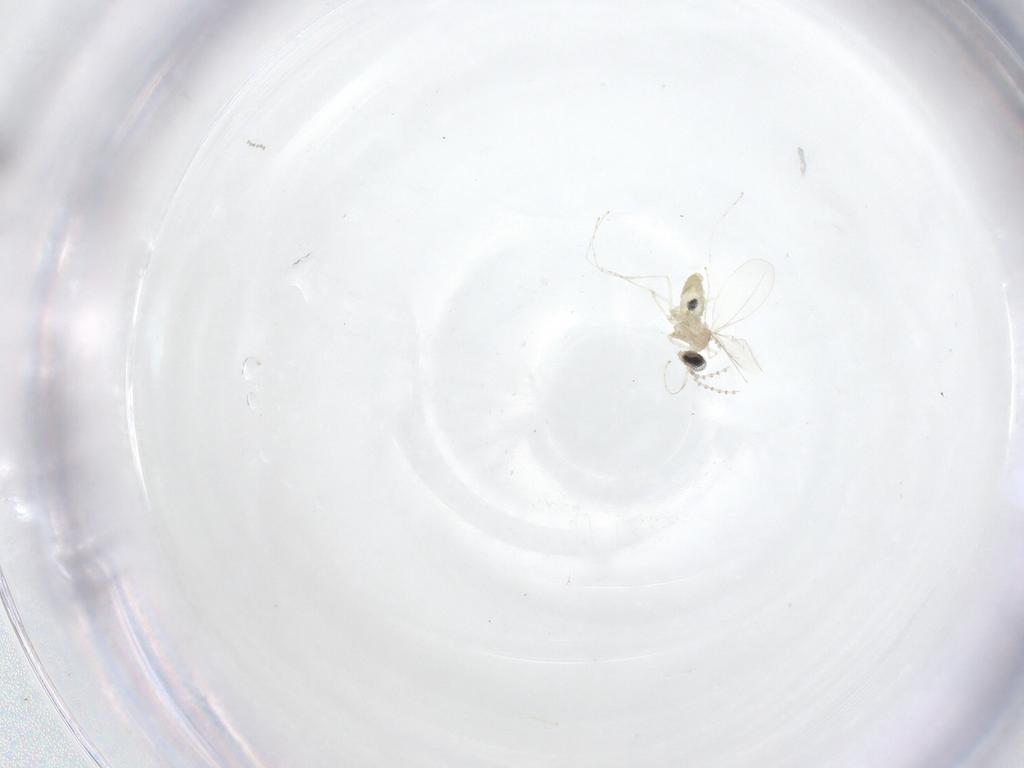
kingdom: Animalia
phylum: Arthropoda
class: Insecta
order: Diptera
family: Cecidomyiidae
